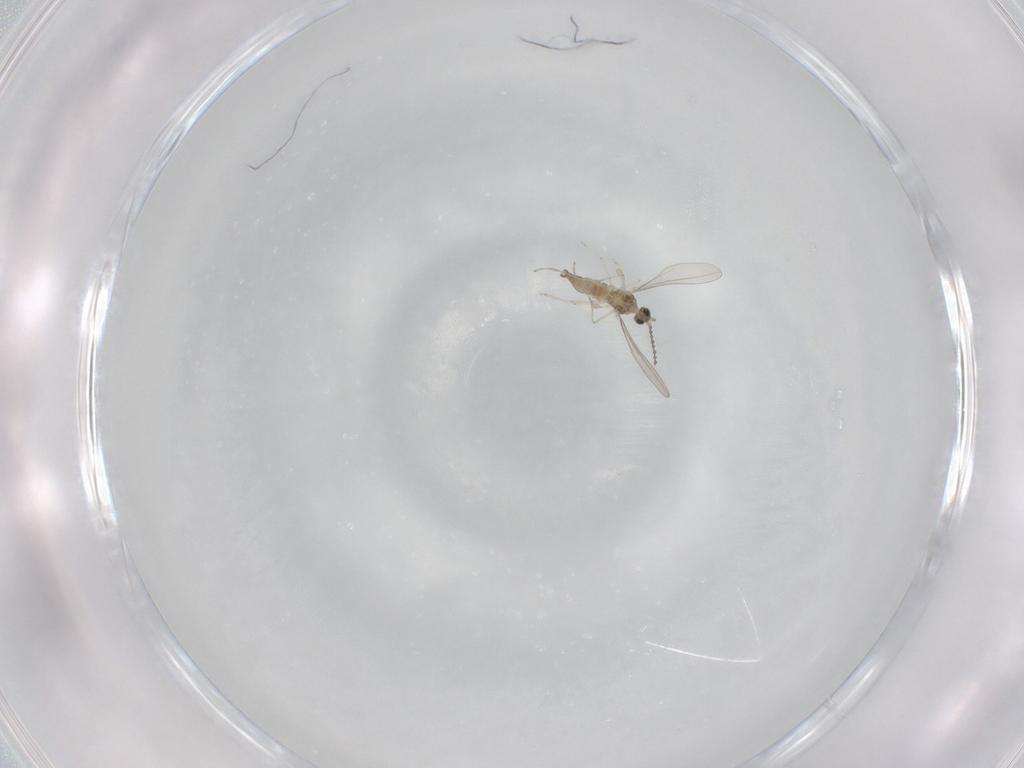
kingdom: Animalia
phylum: Arthropoda
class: Insecta
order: Diptera
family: Cecidomyiidae
